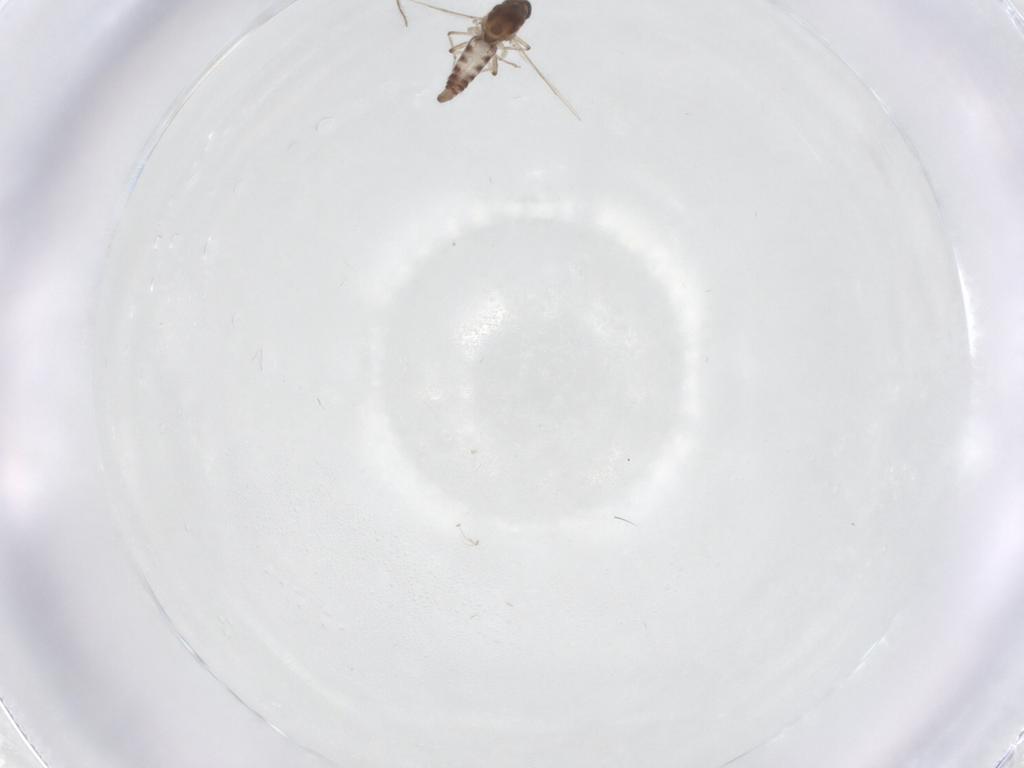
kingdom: Animalia
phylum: Arthropoda
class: Insecta
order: Diptera
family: Ceratopogonidae
